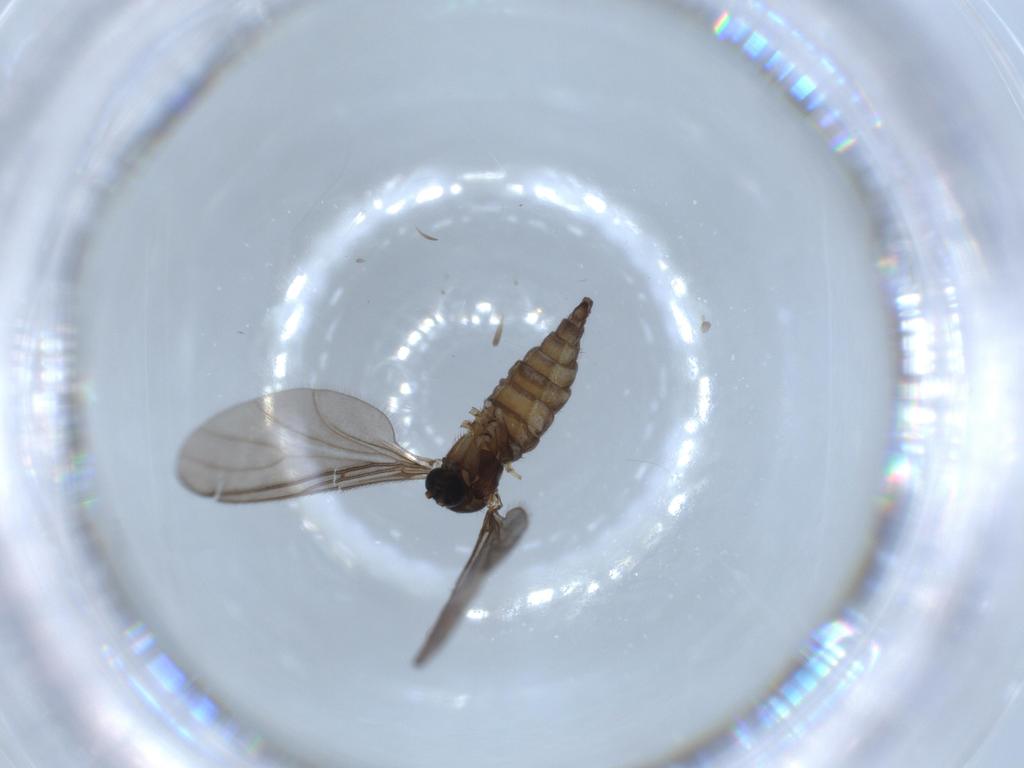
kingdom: Animalia
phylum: Arthropoda
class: Insecta
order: Diptera
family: Sciaridae
